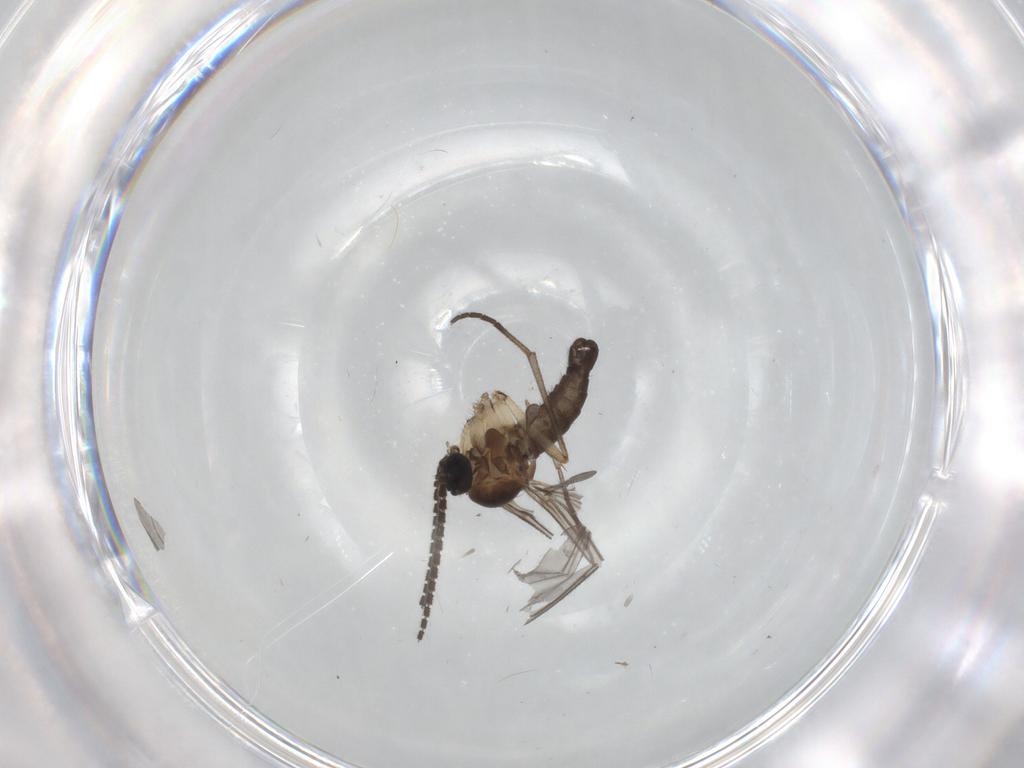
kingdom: Animalia
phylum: Arthropoda
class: Insecta
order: Diptera
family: Sciaridae
